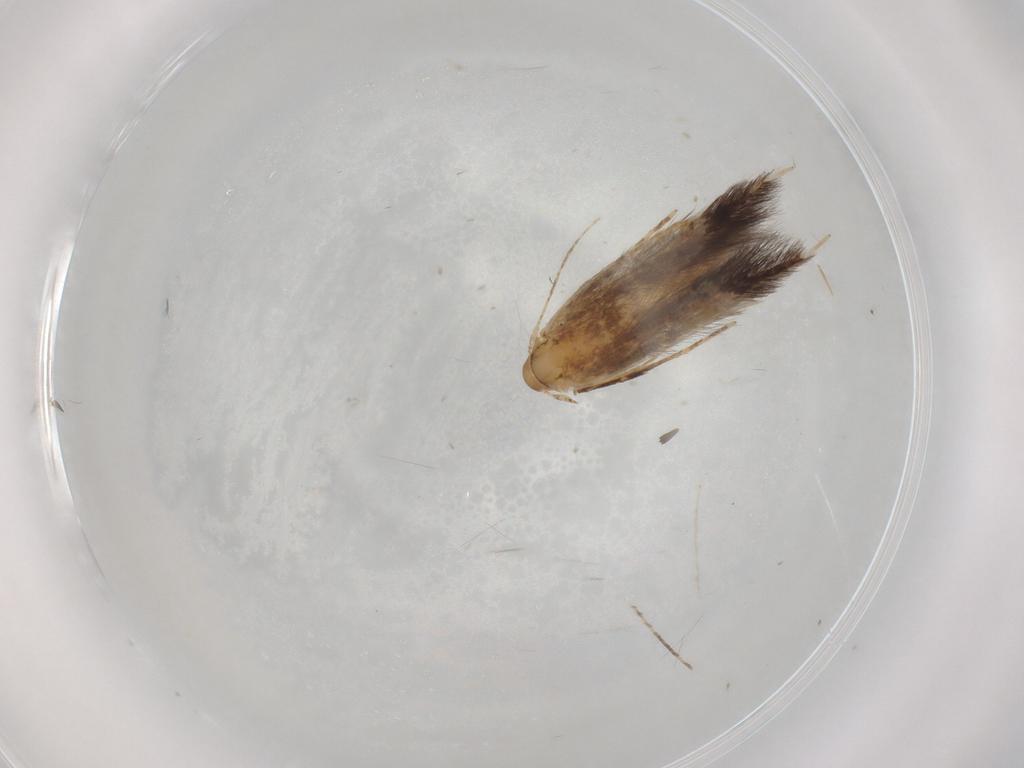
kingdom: Animalia
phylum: Arthropoda
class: Insecta
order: Lepidoptera
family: Cosmopterigidae
